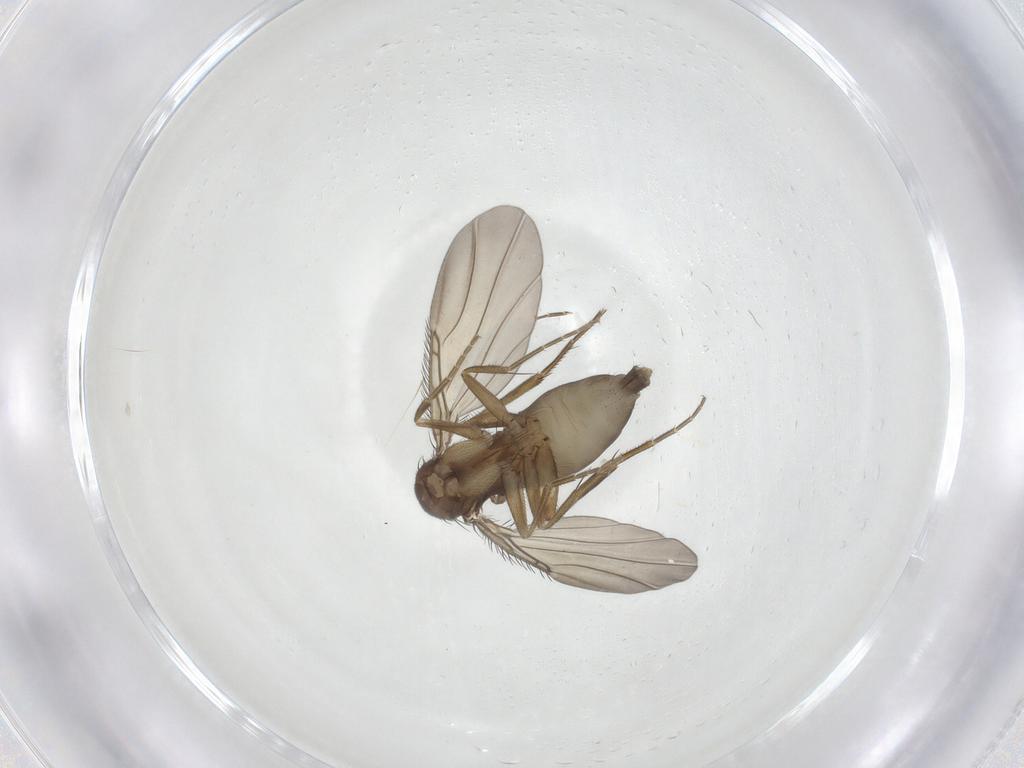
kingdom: Animalia
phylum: Arthropoda
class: Insecta
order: Diptera
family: Phoridae
